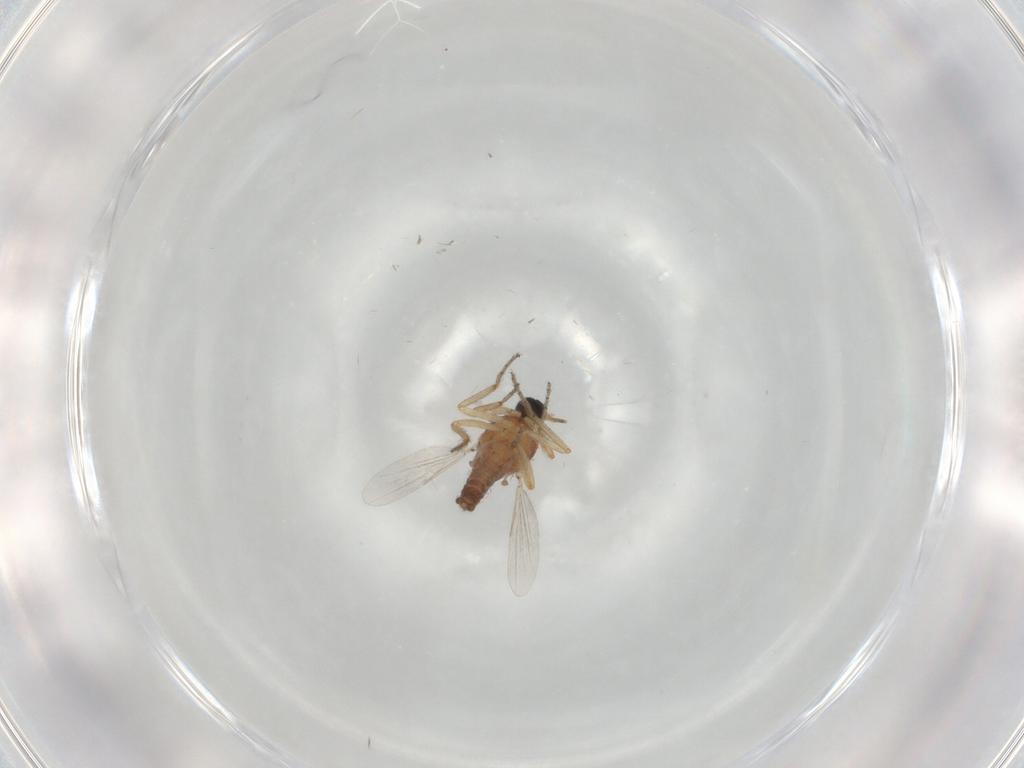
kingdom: Animalia
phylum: Arthropoda
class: Insecta
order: Diptera
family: Ceratopogonidae
